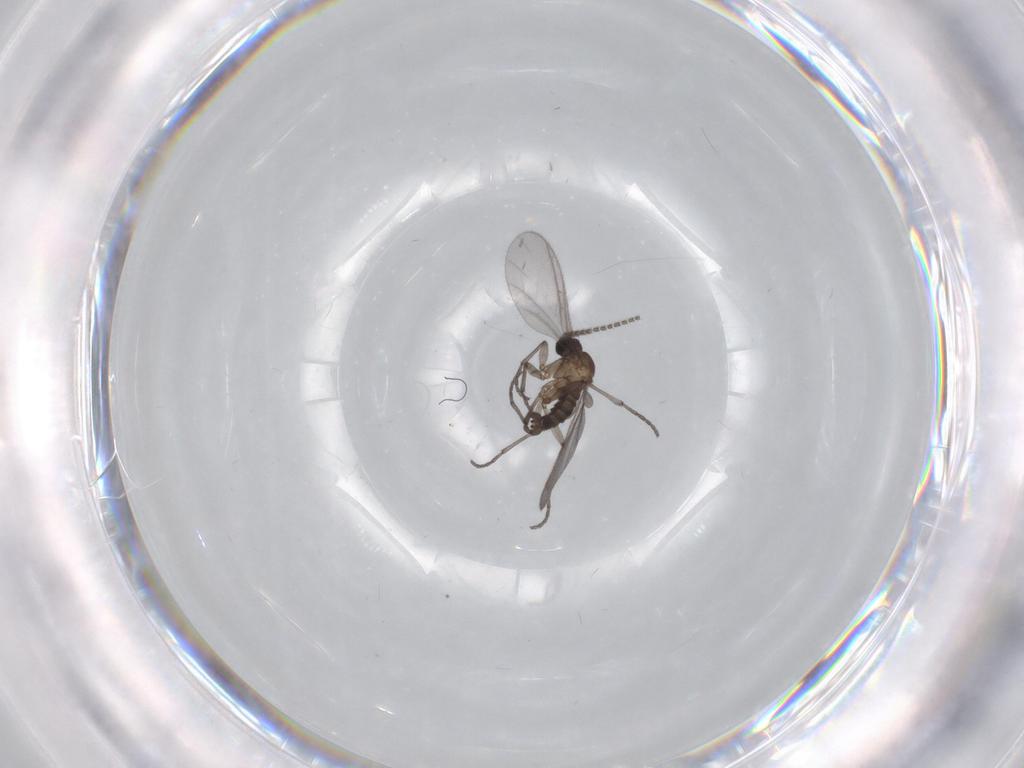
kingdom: Animalia
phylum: Arthropoda
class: Insecta
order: Diptera
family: Sciaridae
